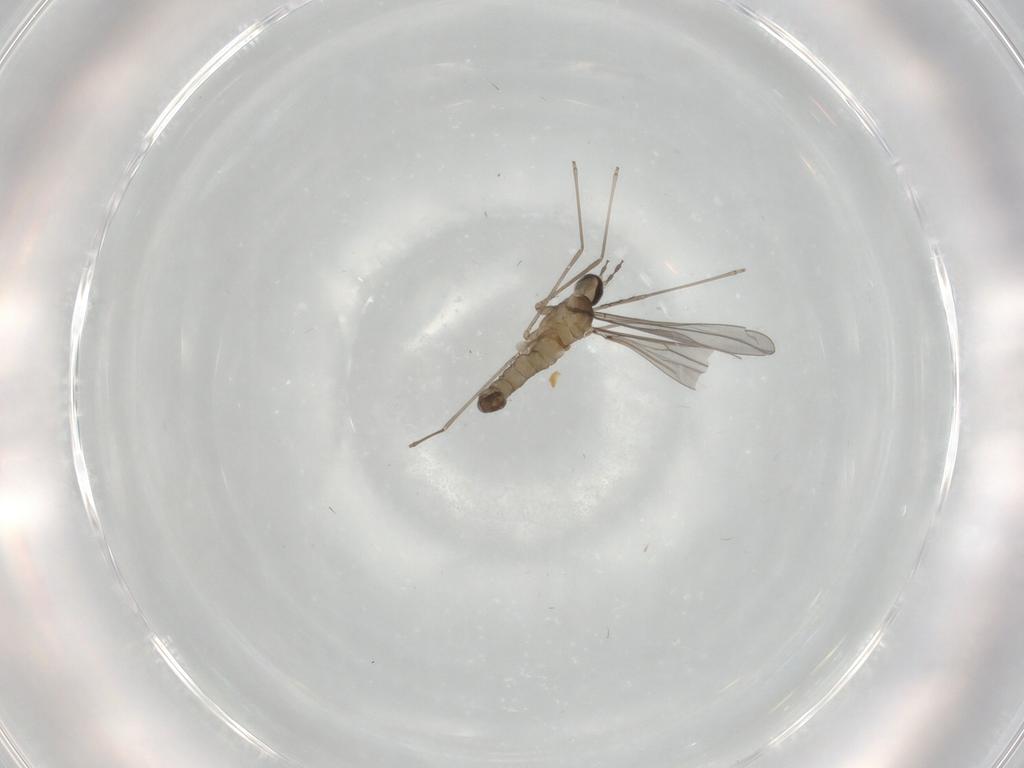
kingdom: Animalia
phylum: Arthropoda
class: Insecta
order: Diptera
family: Cecidomyiidae
